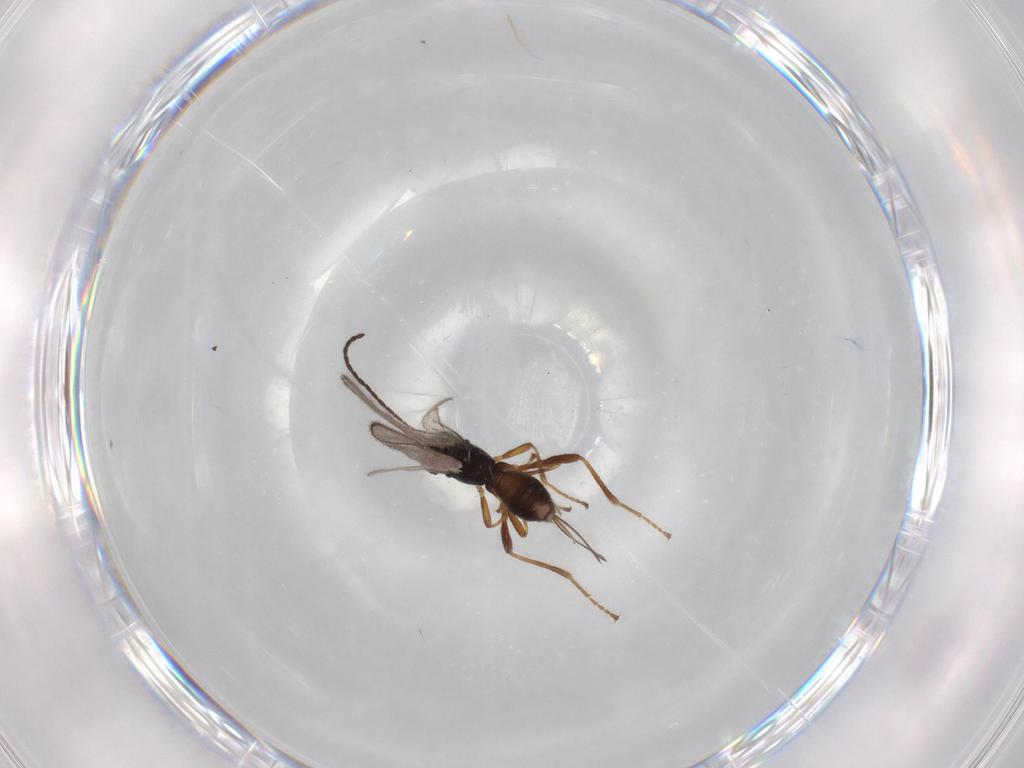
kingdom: Animalia
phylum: Arthropoda
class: Insecta
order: Hymenoptera
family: Braconidae
